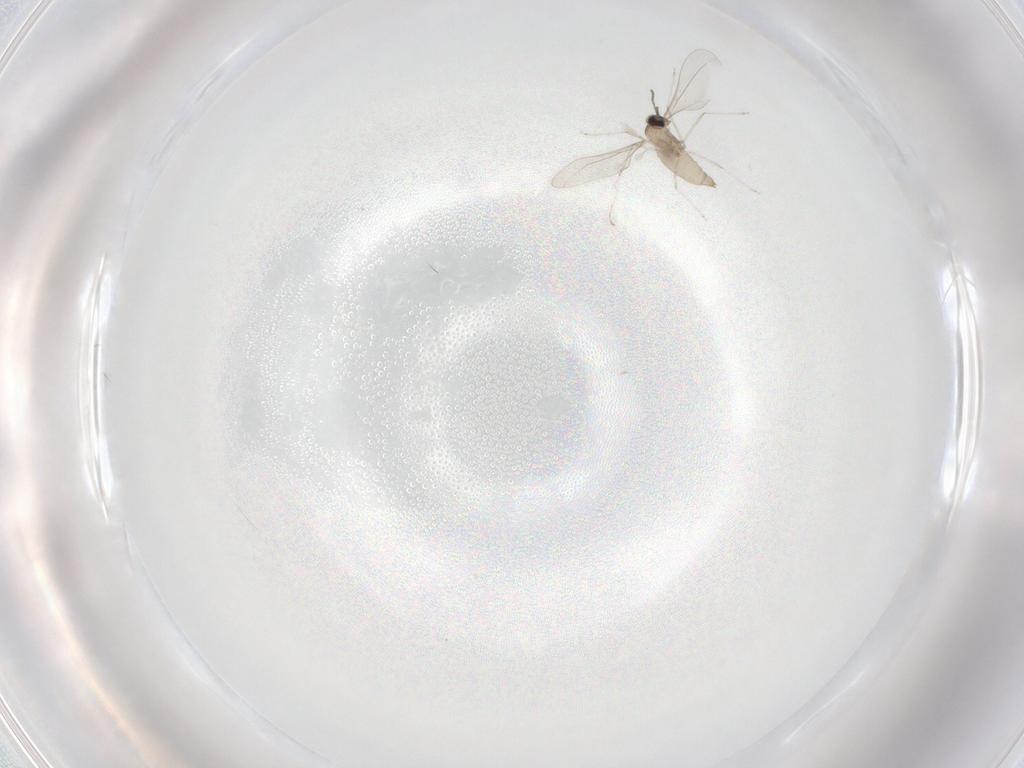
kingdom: Animalia
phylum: Arthropoda
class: Insecta
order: Diptera
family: Cecidomyiidae
